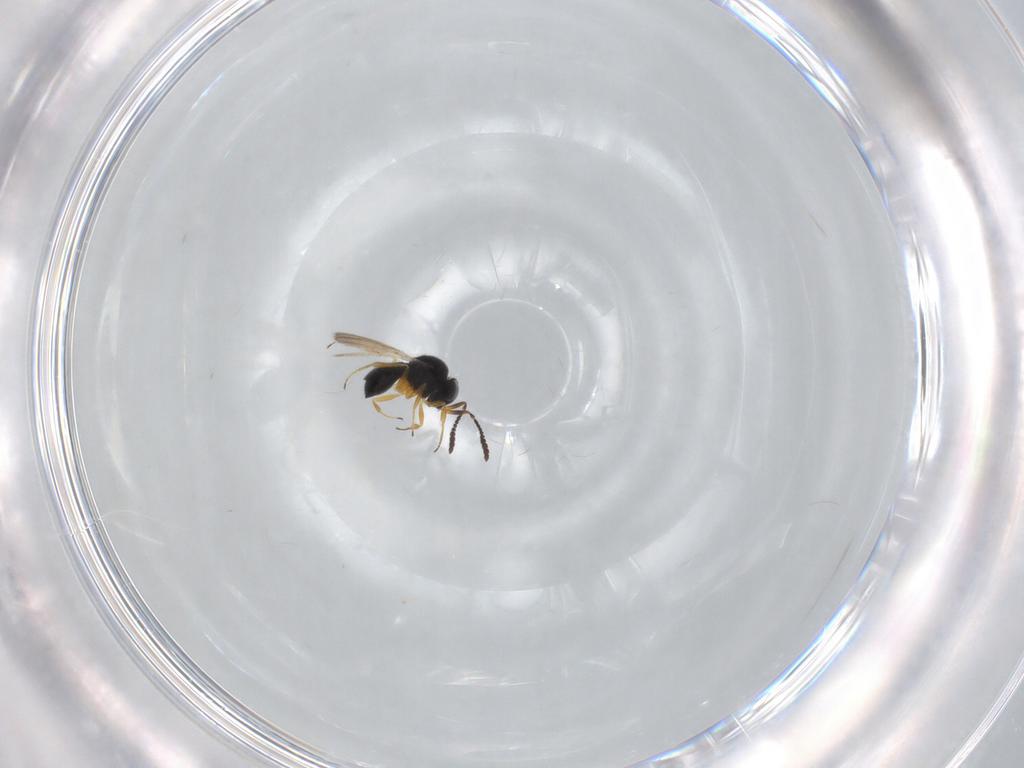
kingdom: Animalia
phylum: Arthropoda
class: Insecta
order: Hymenoptera
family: Scelionidae
